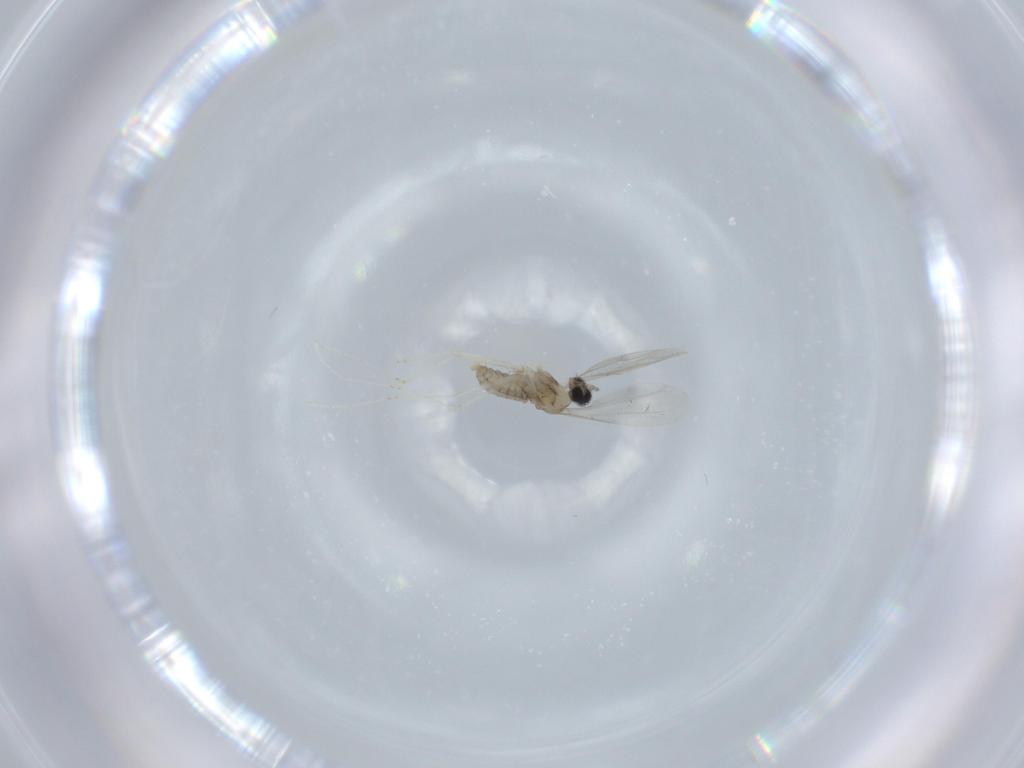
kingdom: Animalia
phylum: Arthropoda
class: Insecta
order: Diptera
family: Cecidomyiidae
